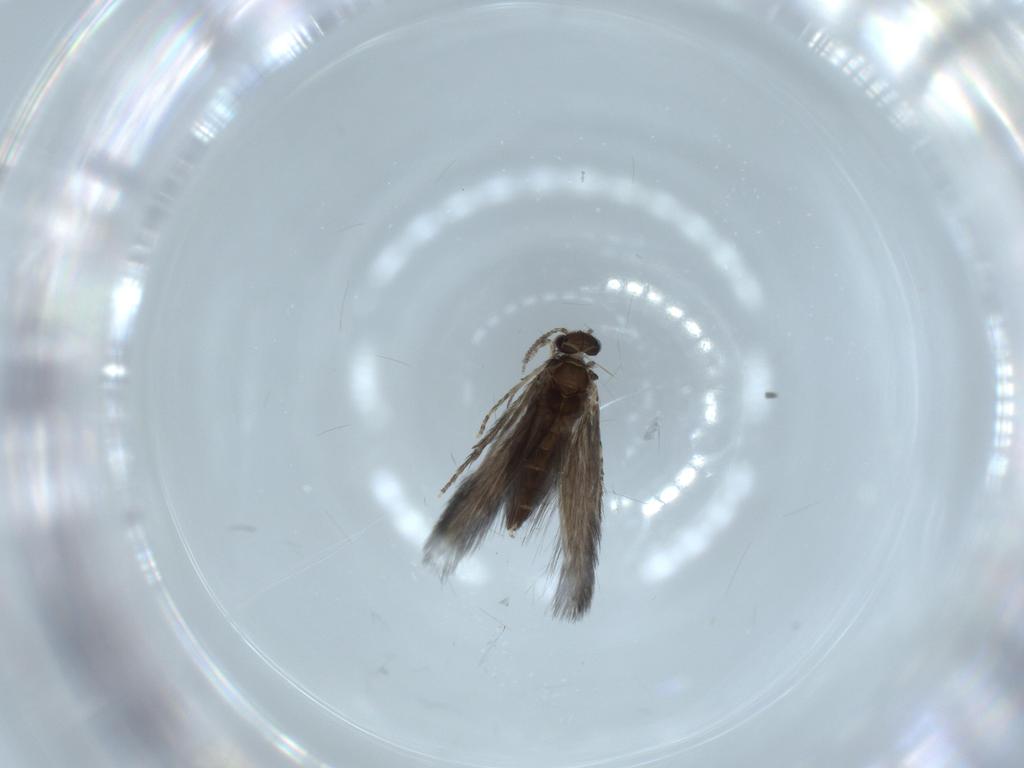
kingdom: Animalia
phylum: Arthropoda
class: Insecta
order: Trichoptera
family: Hydroptilidae
